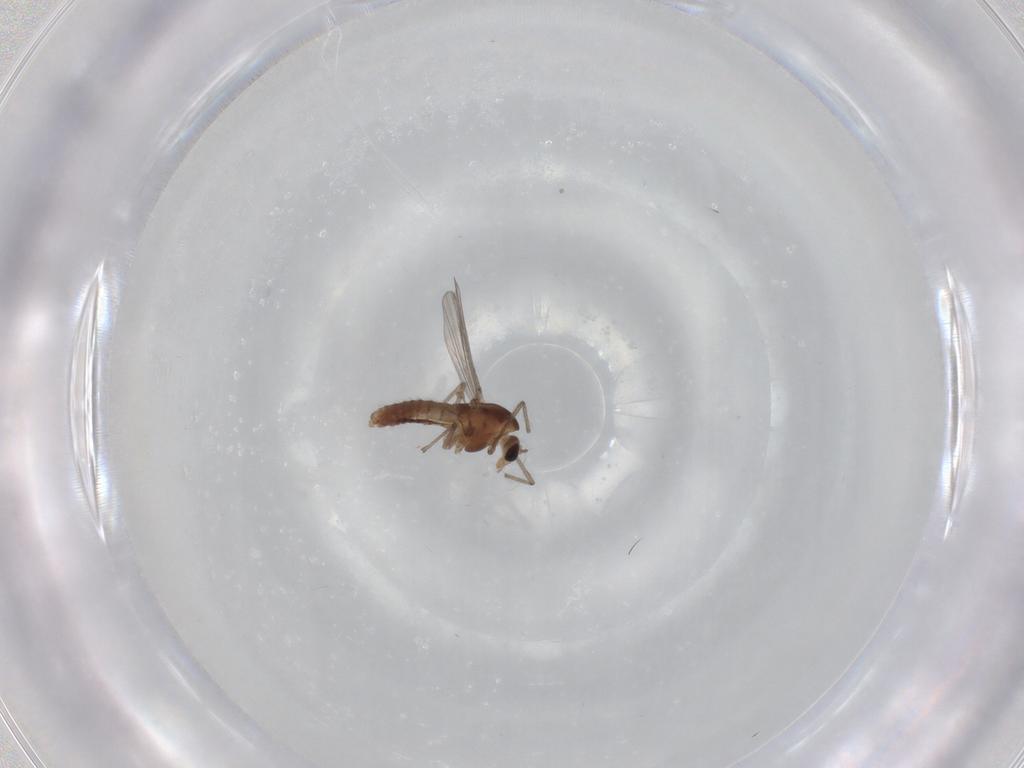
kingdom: Animalia
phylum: Arthropoda
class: Insecta
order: Diptera
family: Chironomidae
